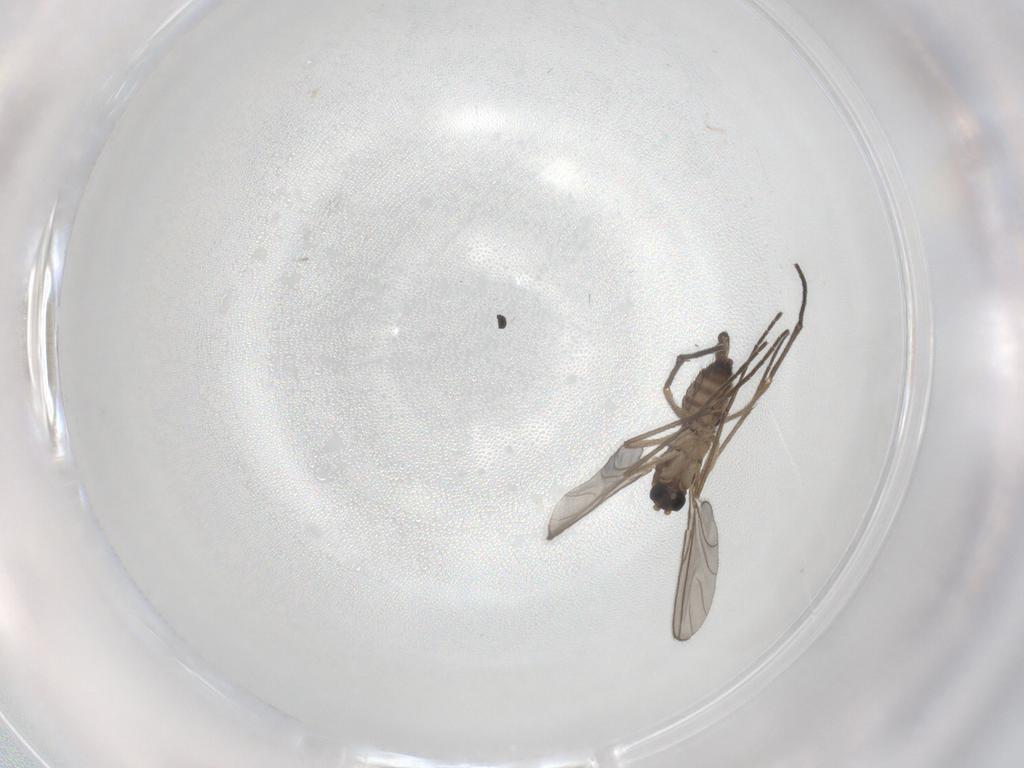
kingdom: Animalia
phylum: Arthropoda
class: Insecta
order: Diptera
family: Sciaridae
